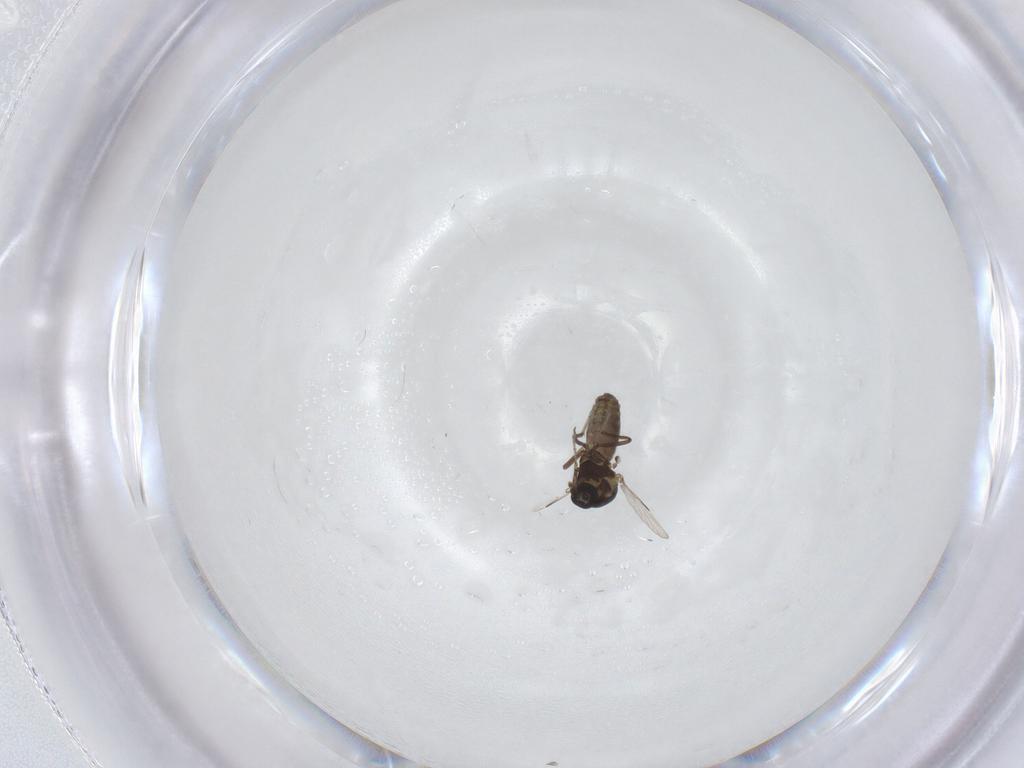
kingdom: Animalia
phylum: Arthropoda
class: Insecta
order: Diptera
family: Ceratopogonidae
